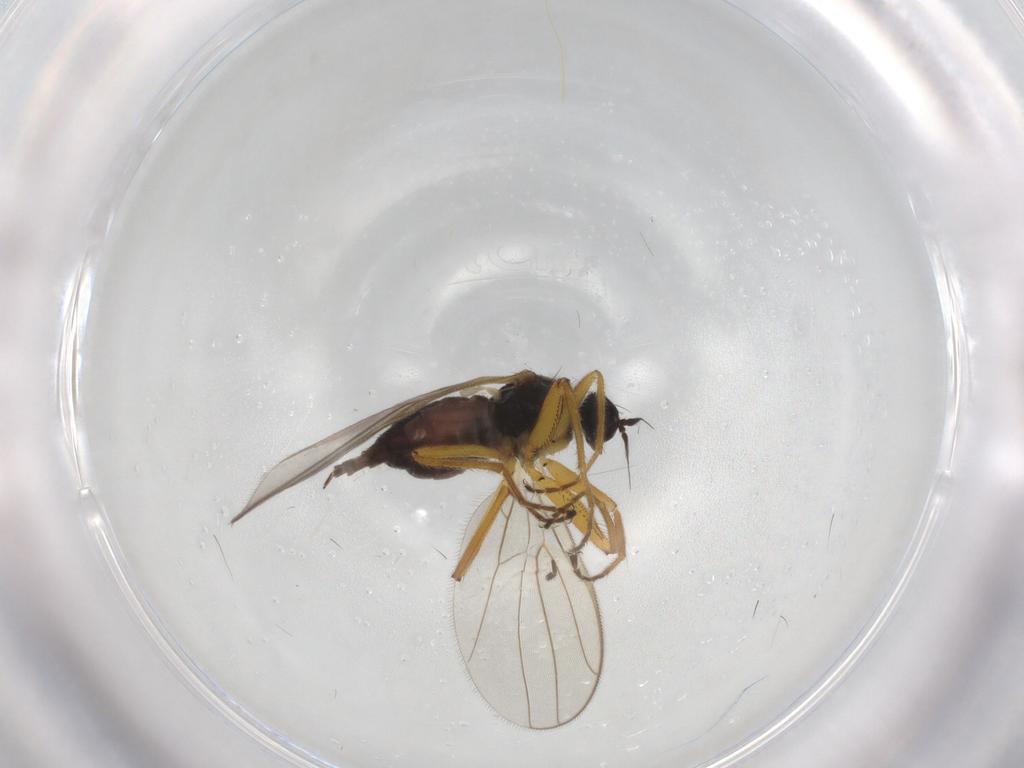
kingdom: Animalia
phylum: Arthropoda
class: Insecta
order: Diptera
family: Hybotidae
